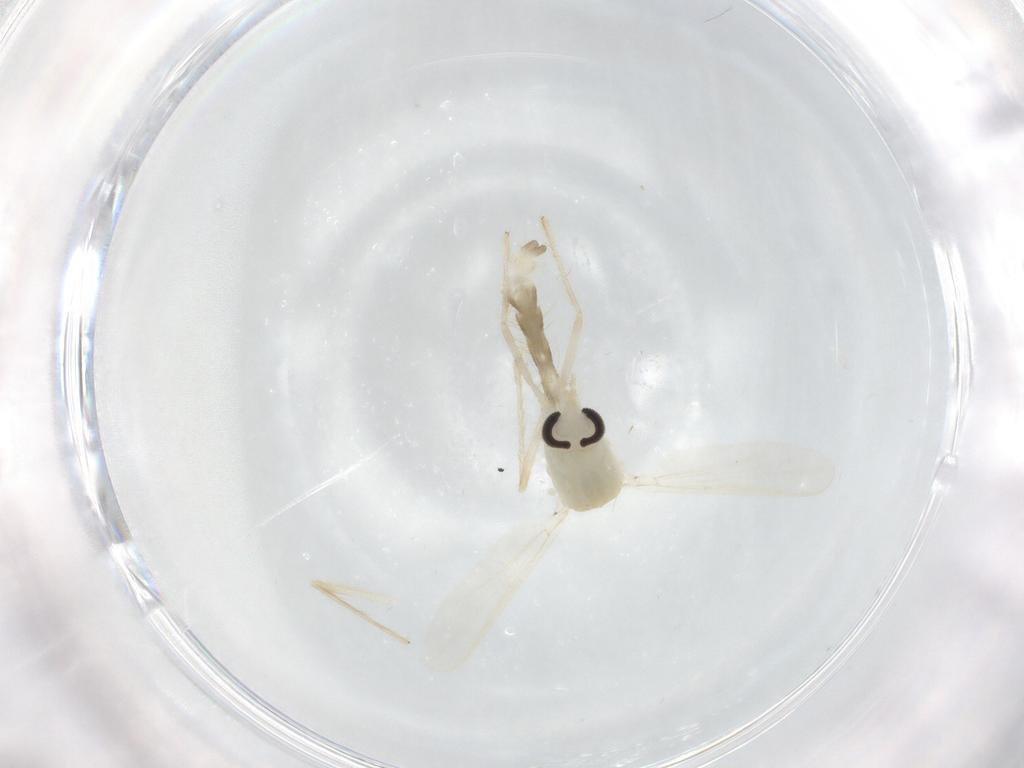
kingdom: Animalia
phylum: Arthropoda
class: Insecta
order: Diptera
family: Chironomidae
